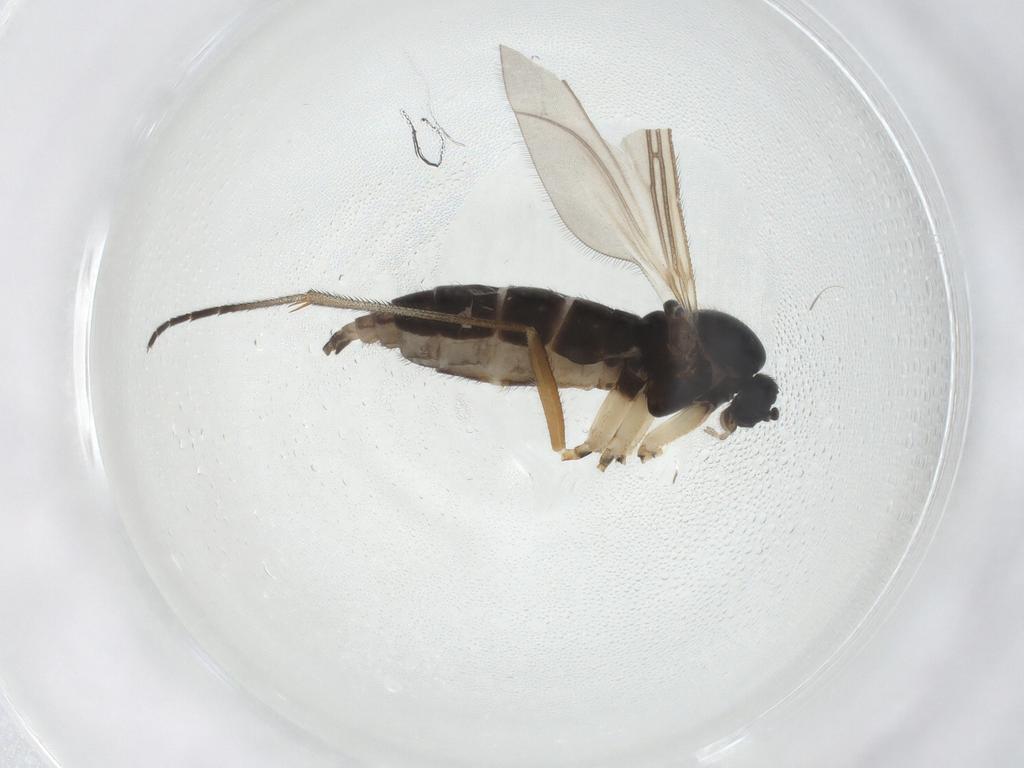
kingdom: Animalia
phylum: Arthropoda
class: Insecta
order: Diptera
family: Sciaridae
